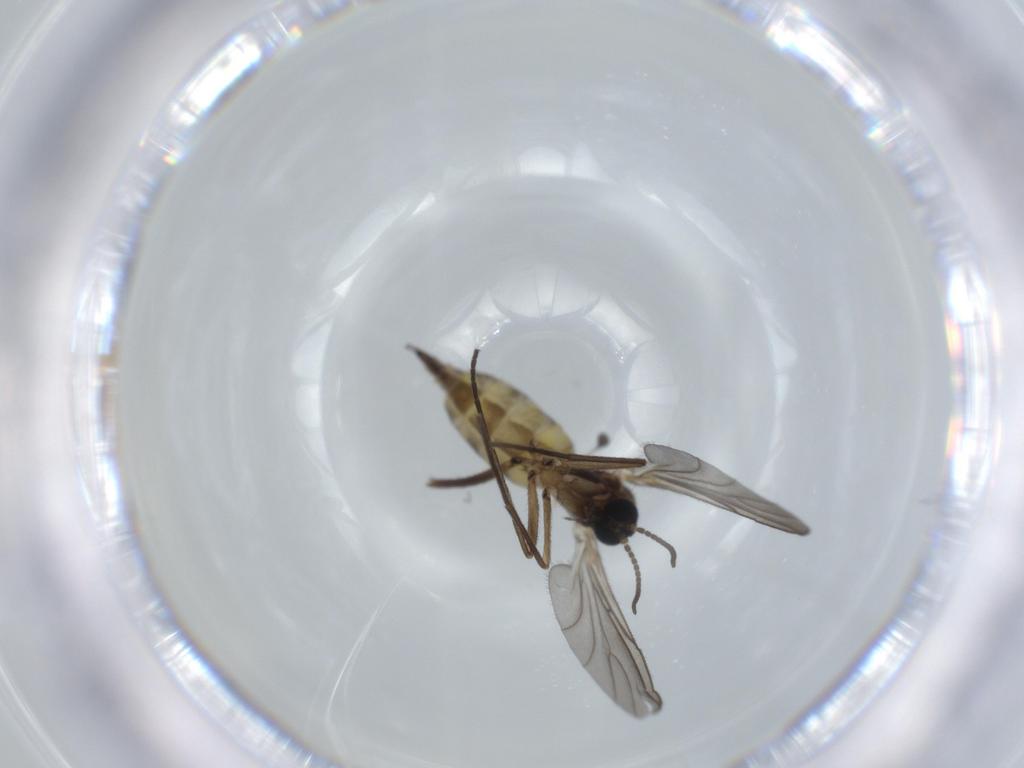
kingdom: Animalia
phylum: Arthropoda
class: Insecta
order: Diptera
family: Sciaridae
